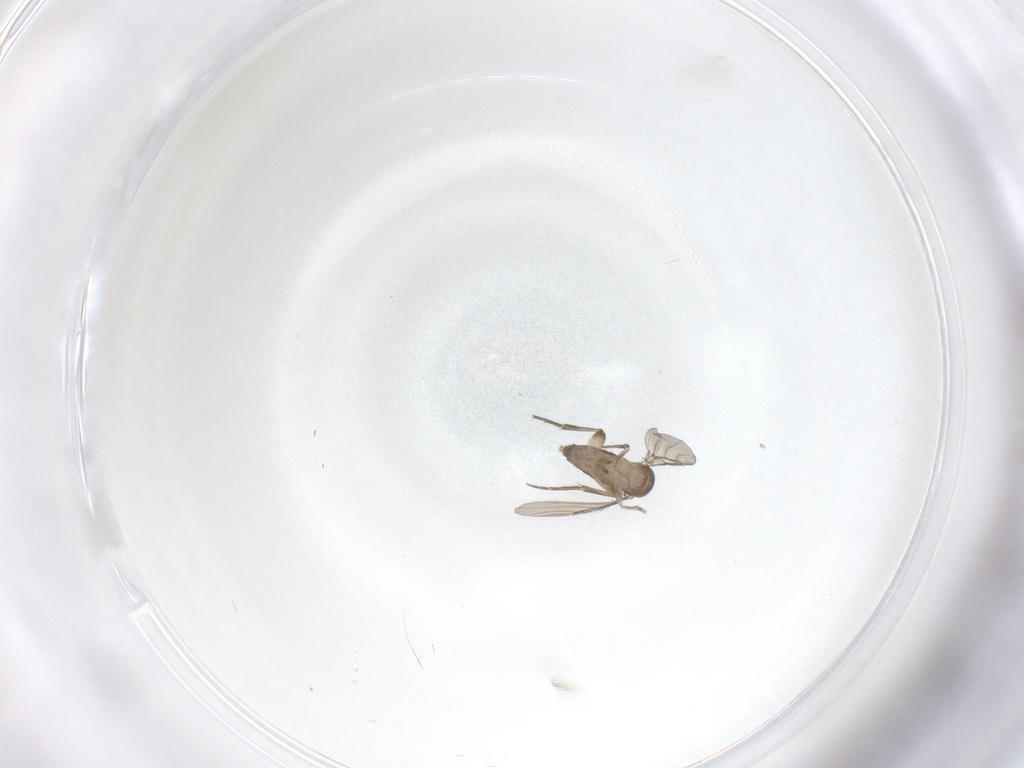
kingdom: Animalia
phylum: Arthropoda
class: Insecta
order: Diptera
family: Phoridae
